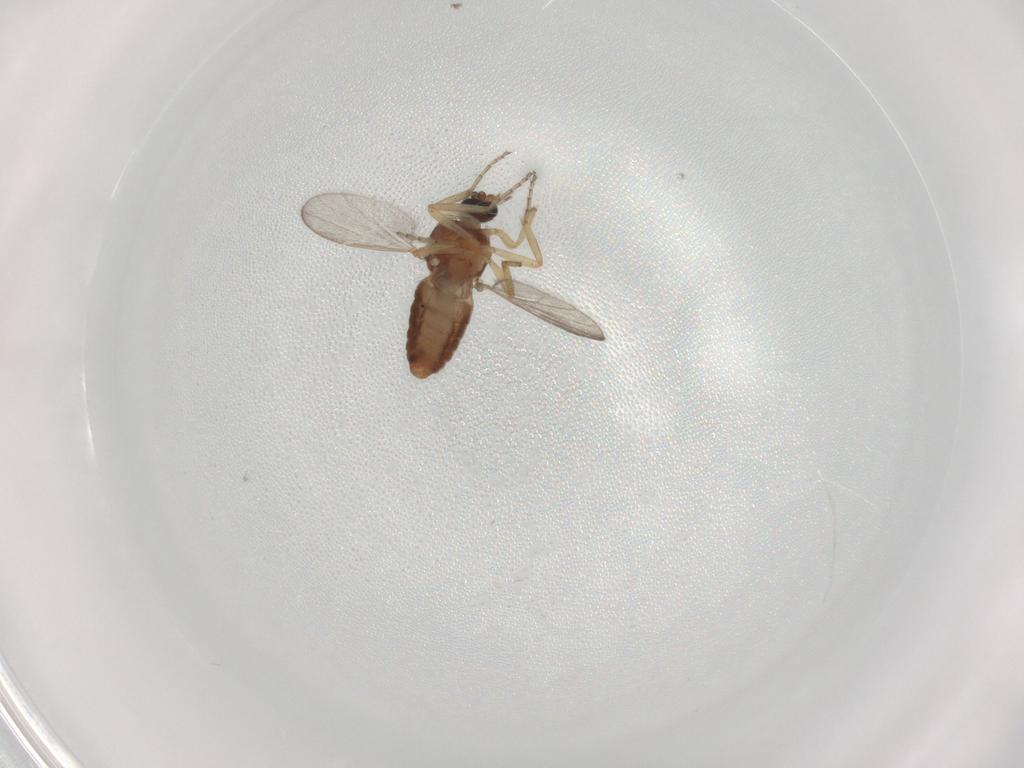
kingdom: Animalia
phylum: Arthropoda
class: Insecta
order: Diptera
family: Ceratopogonidae
